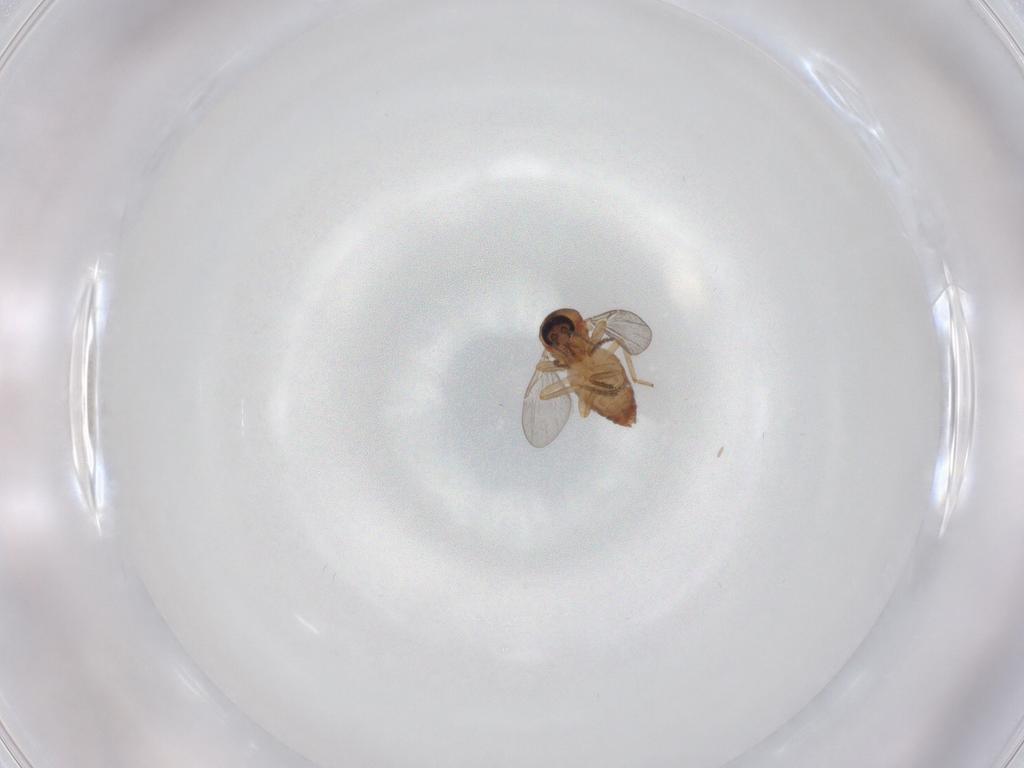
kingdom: Animalia
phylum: Arthropoda
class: Insecta
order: Diptera
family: Ceratopogonidae
